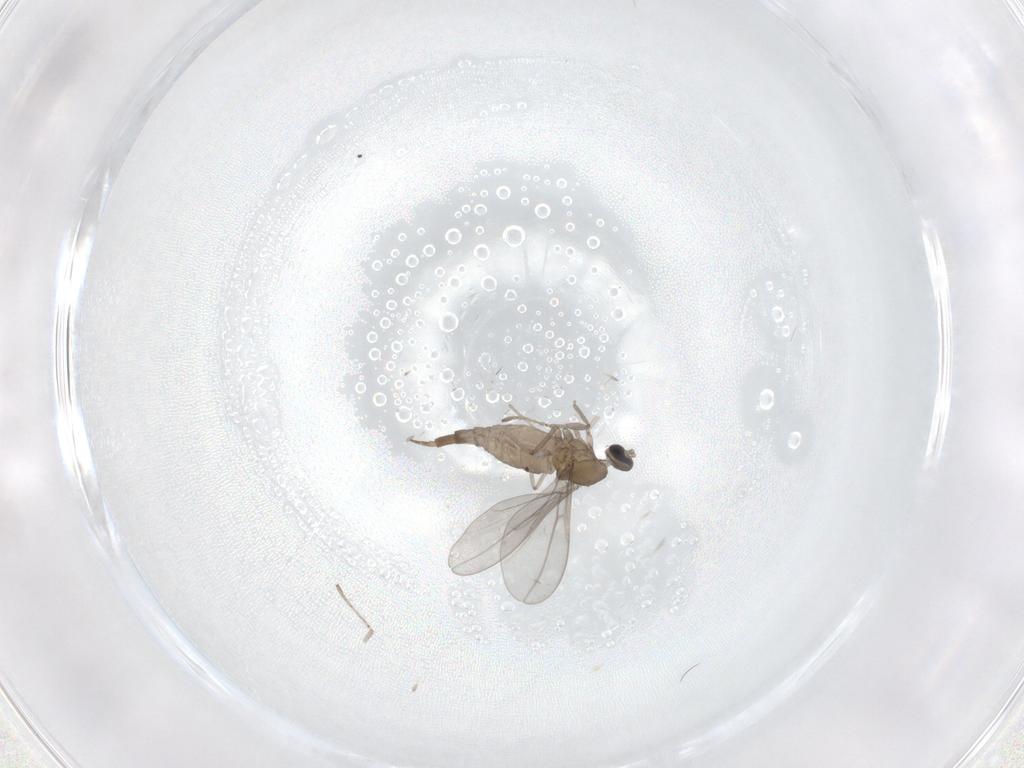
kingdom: Animalia
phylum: Arthropoda
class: Insecta
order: Diptera
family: Cecidomyiidae
